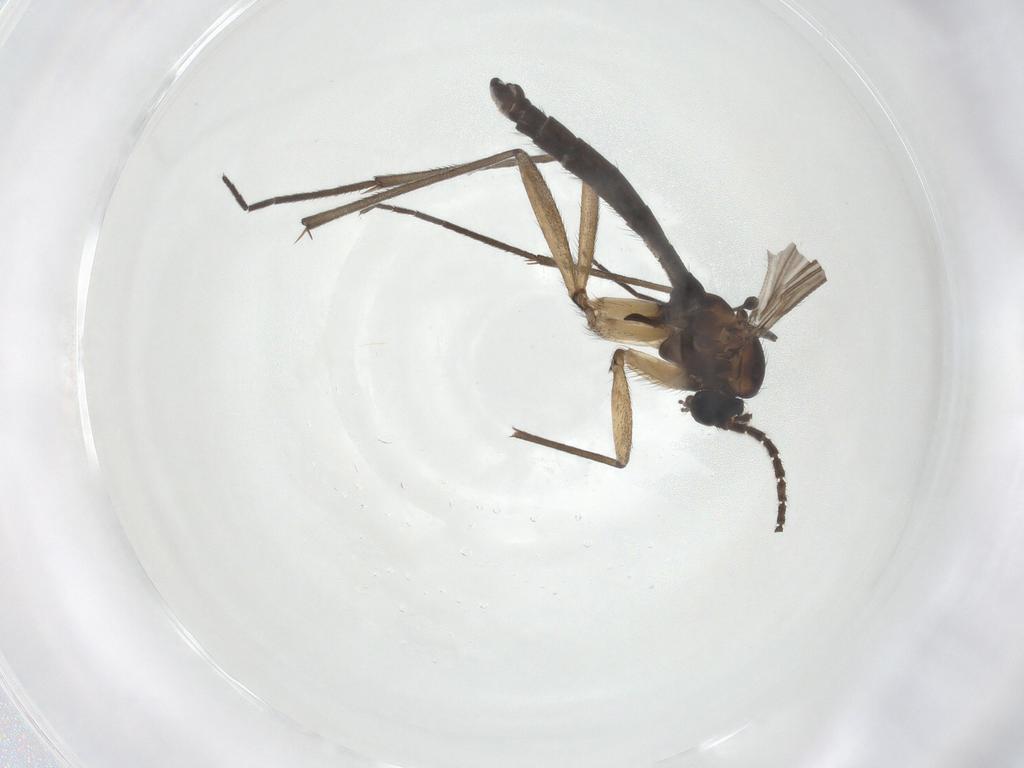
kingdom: Animalia
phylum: Arthropoda
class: Insecta
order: Diptera
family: Sciaridae
